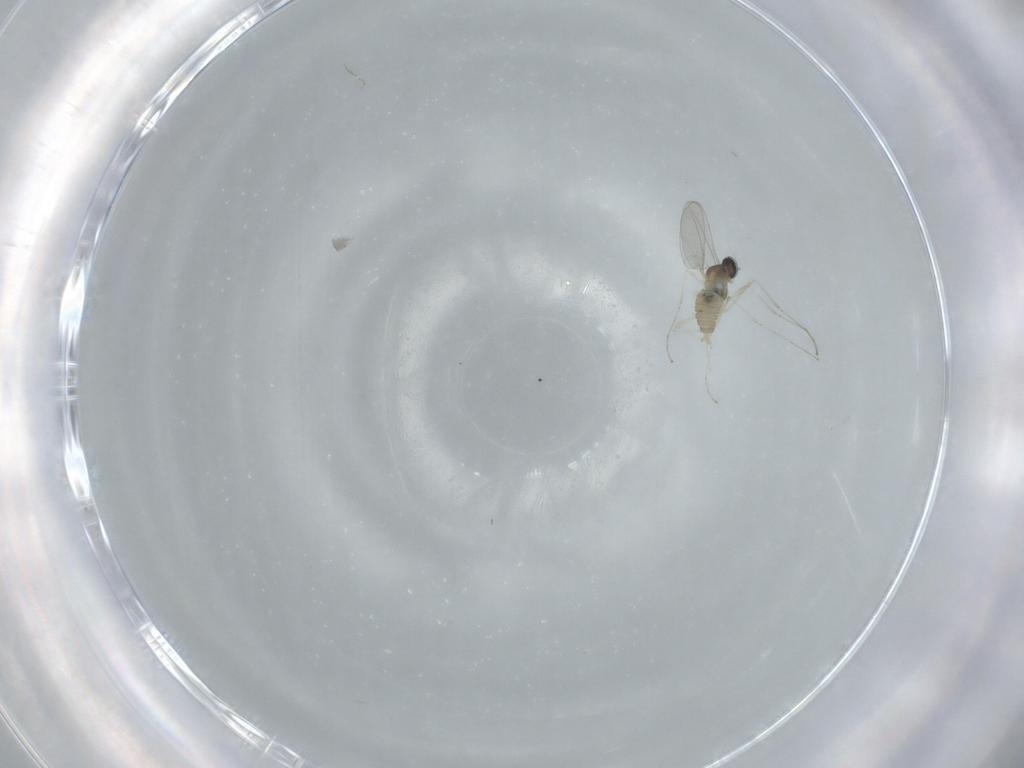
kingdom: Animalia
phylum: Arthropoda
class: Insecta
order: Diptera
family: Cecidomyiidae
